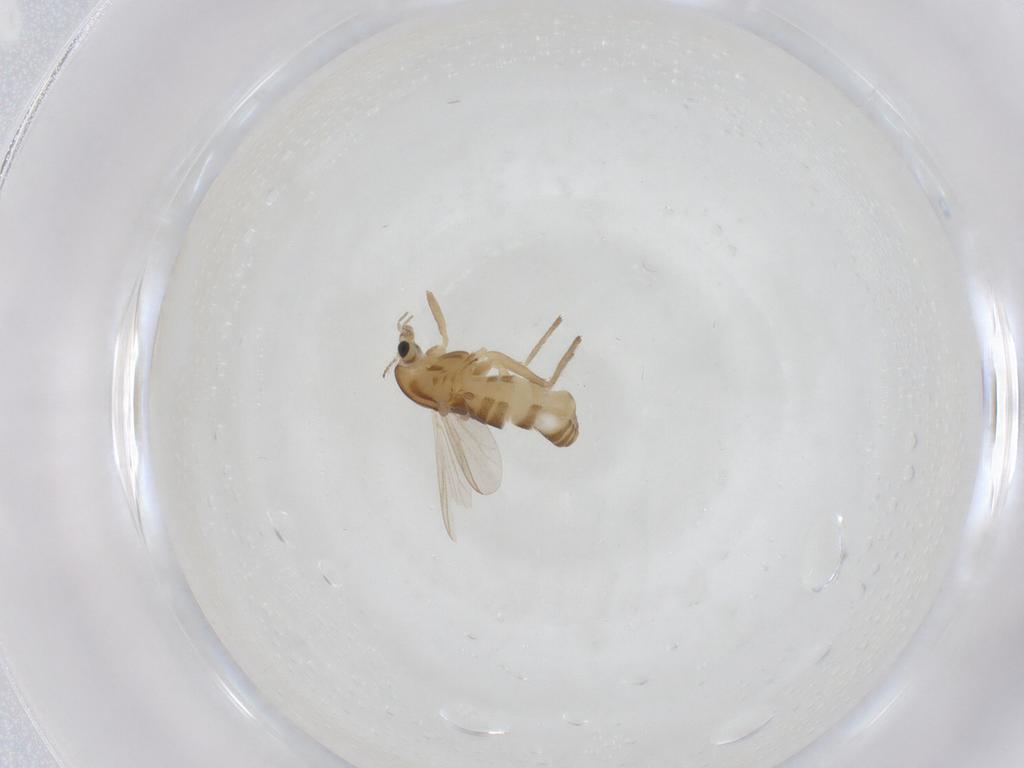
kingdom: Animalia
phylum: Arthropoda
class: Insecta
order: Diptera
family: Chironomidae
